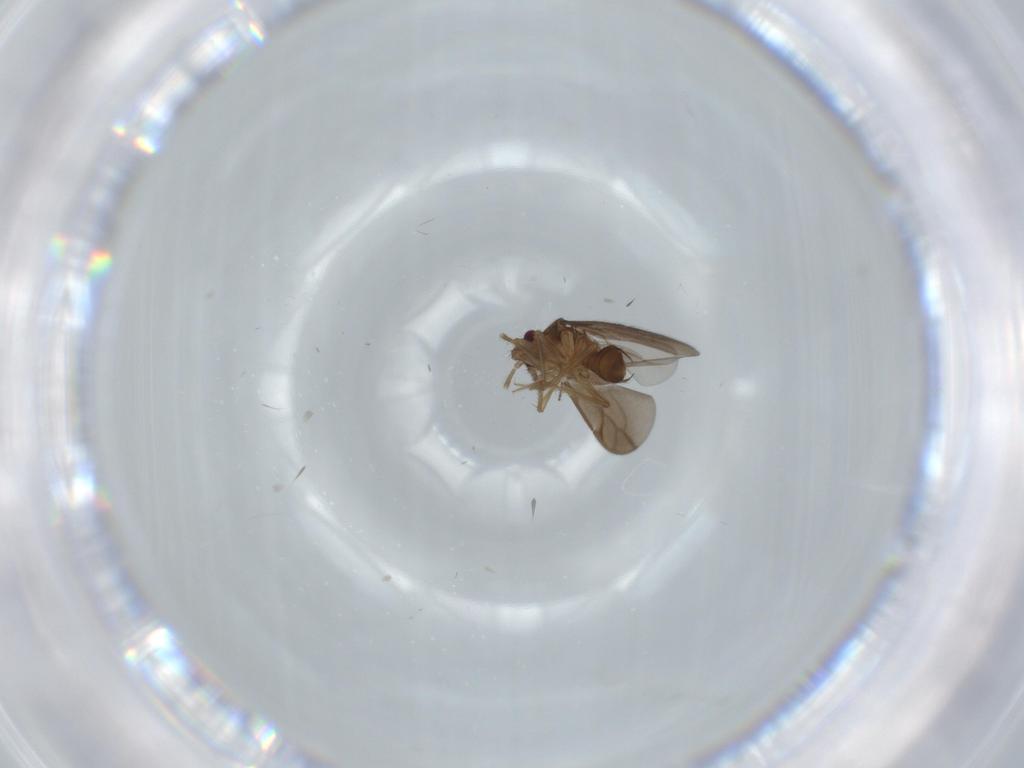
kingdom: Animalia
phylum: Arthropoda
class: Insecta
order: Hemiptera
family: Ceratocombidae
